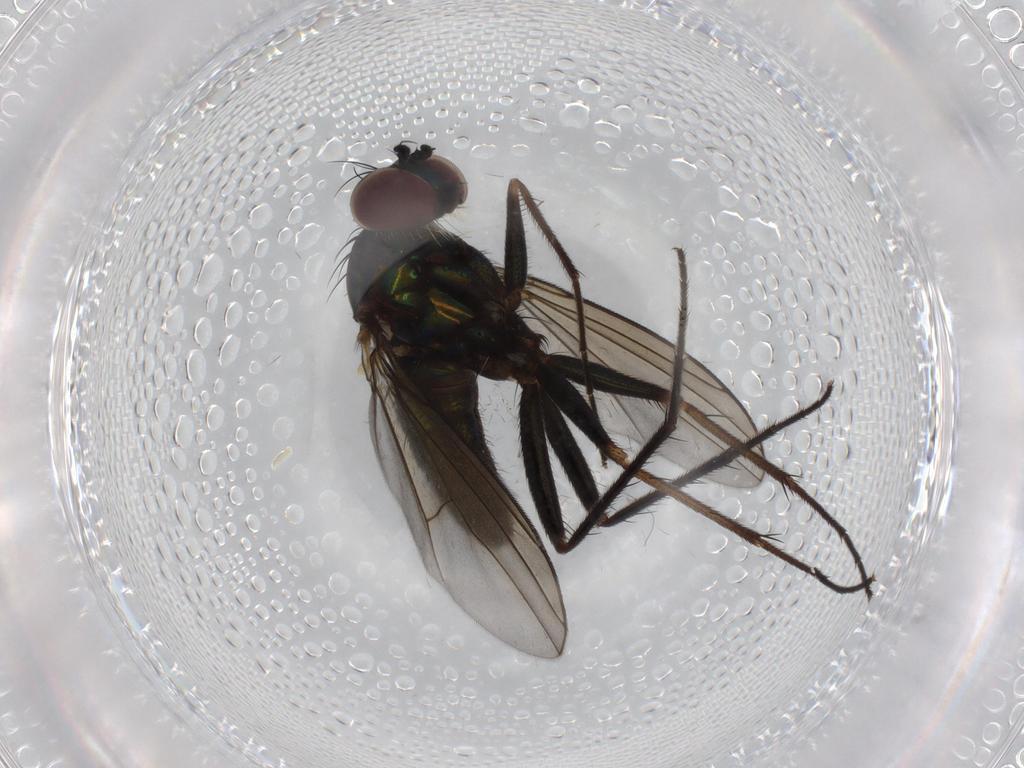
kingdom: Animalia
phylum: Arthropoda
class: Insecta
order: Diptera
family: Dolichopodidae
